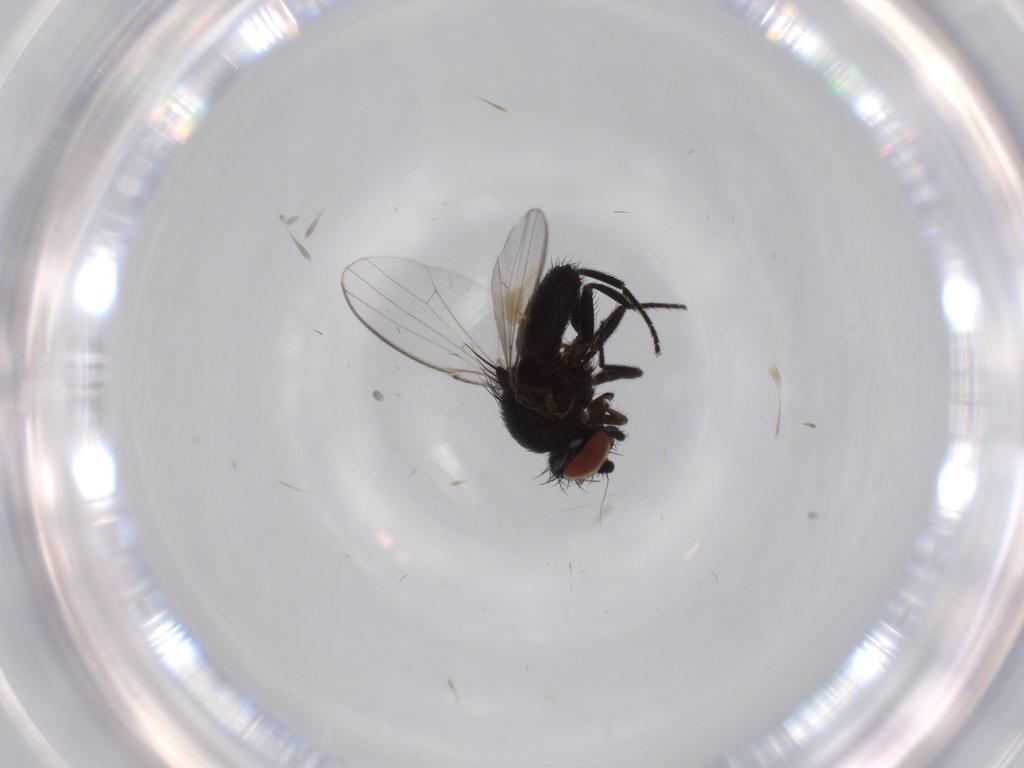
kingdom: Animalia
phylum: Arthropoda
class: Insecta
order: Diptera
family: Milichiidae
